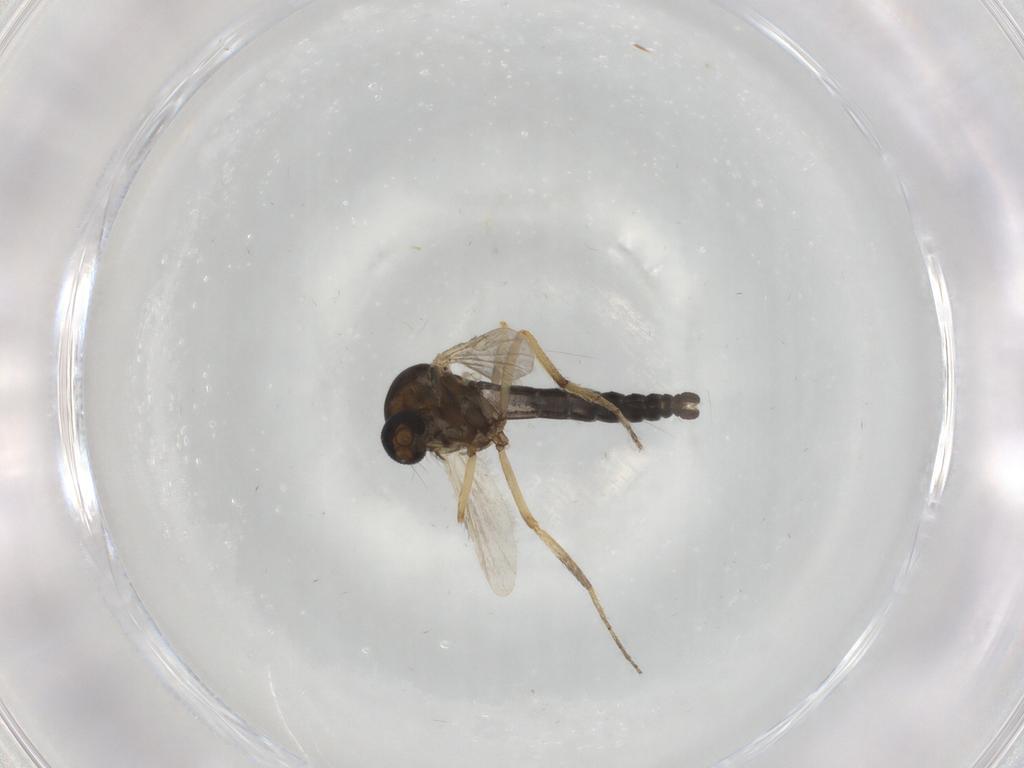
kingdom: Animalia
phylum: Arthropoda
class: Insecta
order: Diptera
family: Ceratopogonidae
